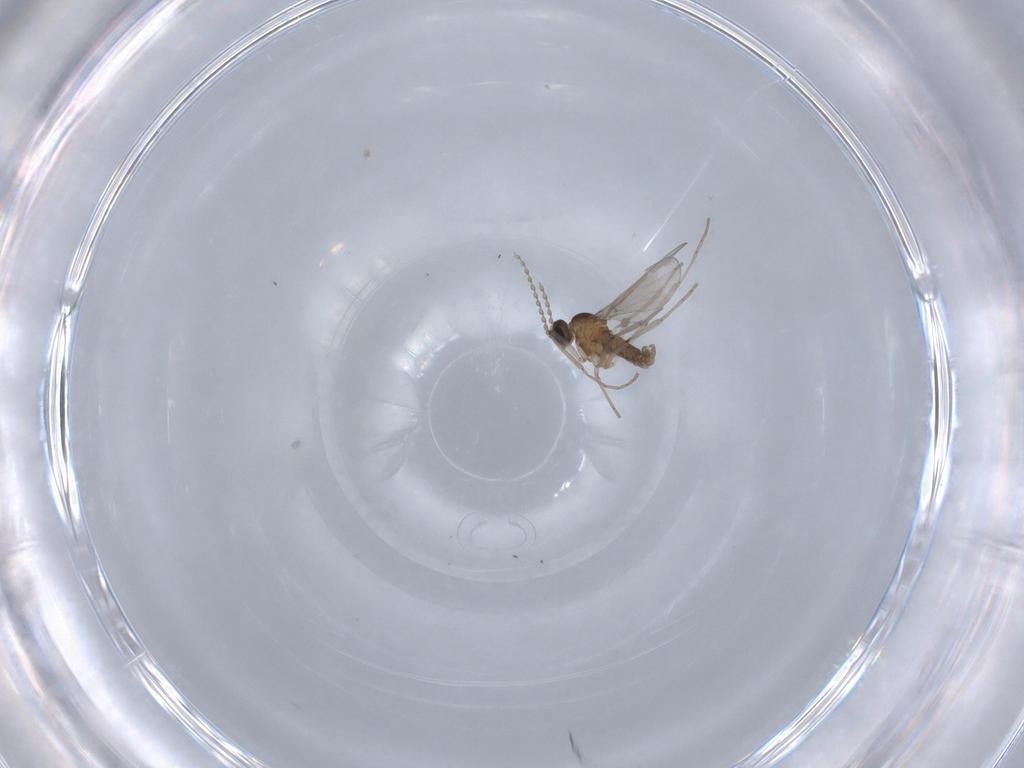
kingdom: Animalia
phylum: Arthropoda
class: Insecta
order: Diptera
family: Cecidomyiidae
